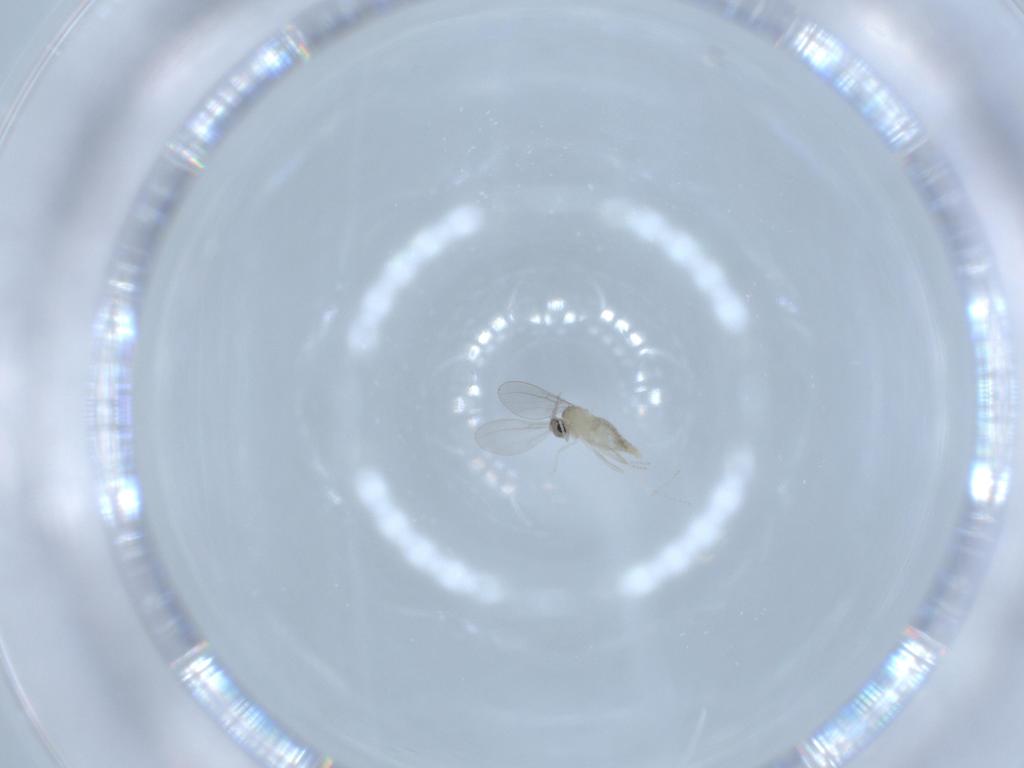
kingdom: Animalia
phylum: Arthropoda
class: Insecta
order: Diptera
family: Cecidomyiidae
